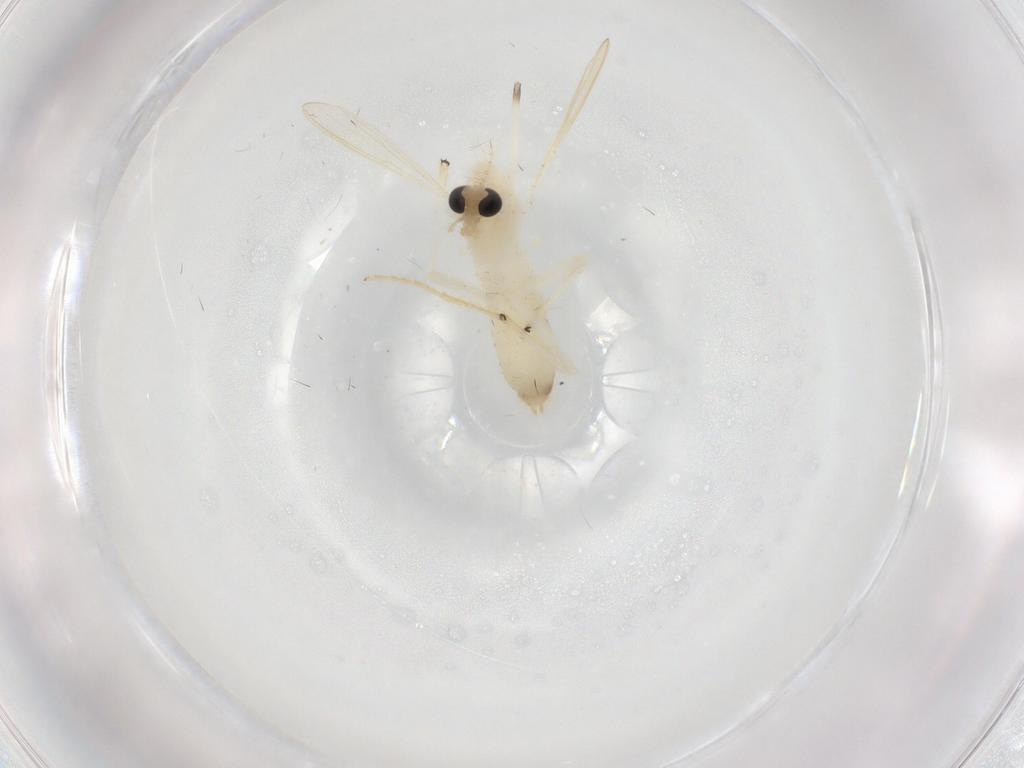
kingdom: Animalia
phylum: Arthropoda
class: Insecta
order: Diptera
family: Chironomidae
